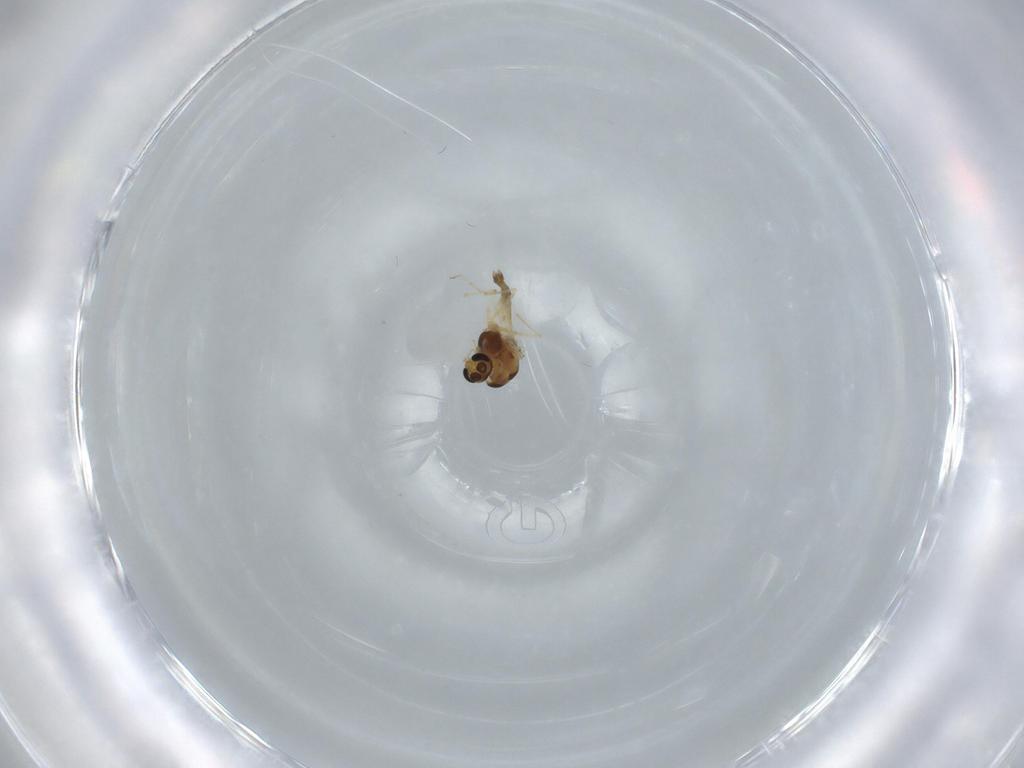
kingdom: Animalia
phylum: Arthropoda
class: Insecta
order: Diptera
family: Chironomidae
